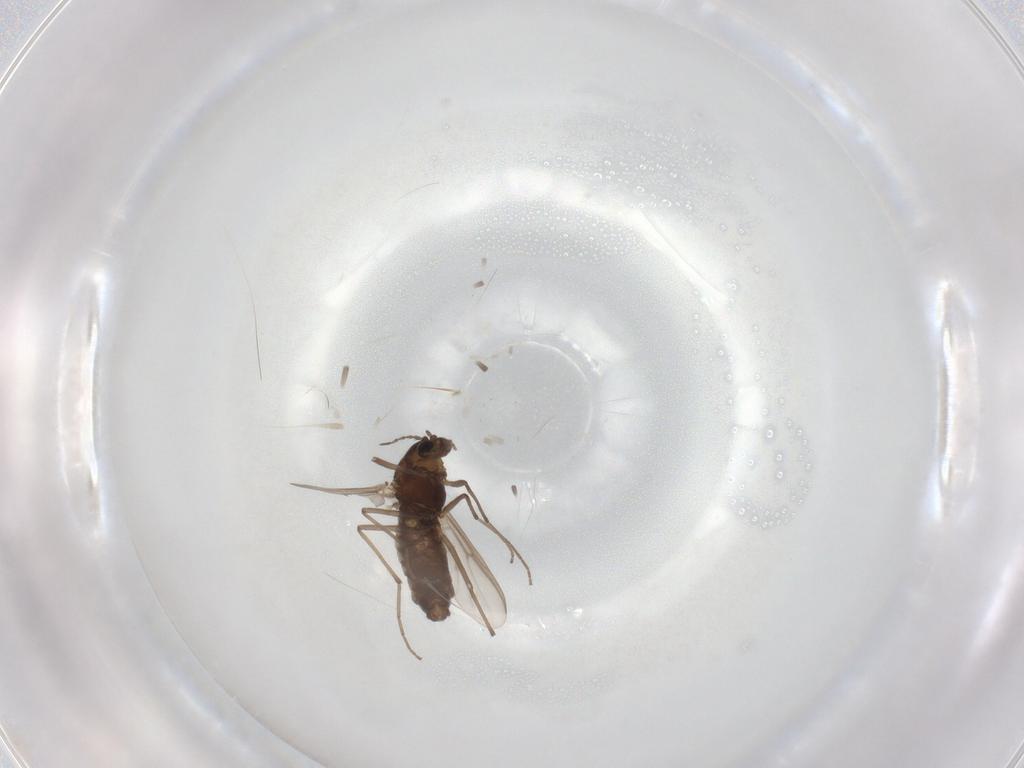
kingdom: Animalia
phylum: Arthropoda
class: Insecta
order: Diptera
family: Chironomidae
